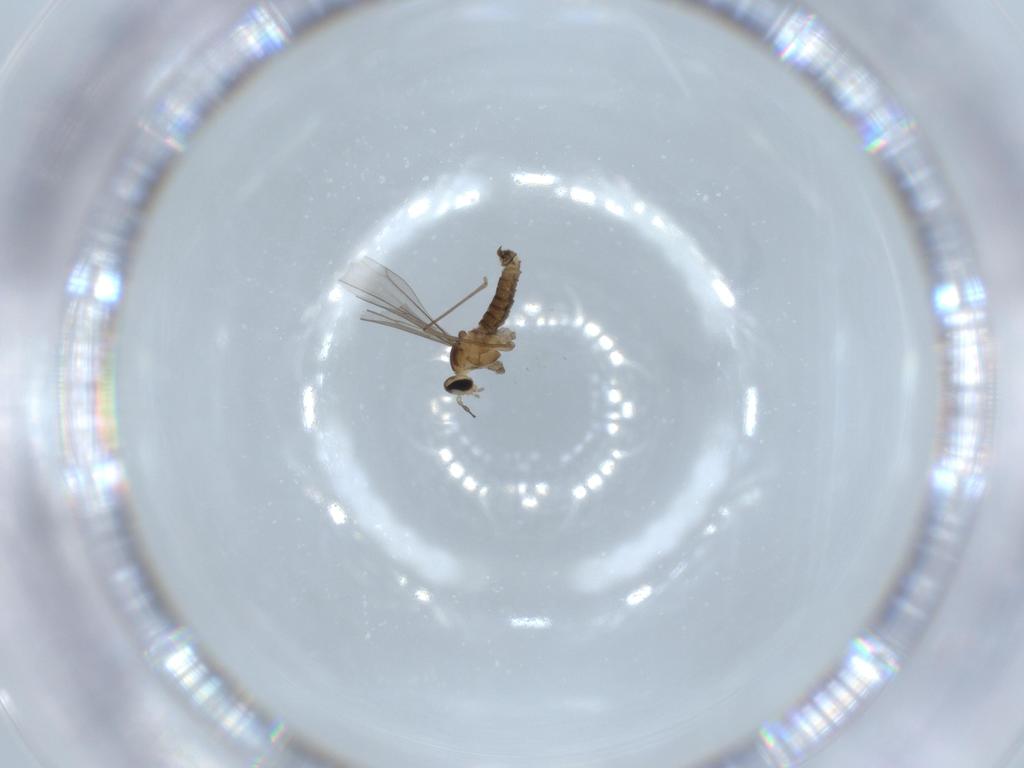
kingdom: Animalia
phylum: Arthropoda
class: Insecta
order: Diptera
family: Cecidomyiidae
